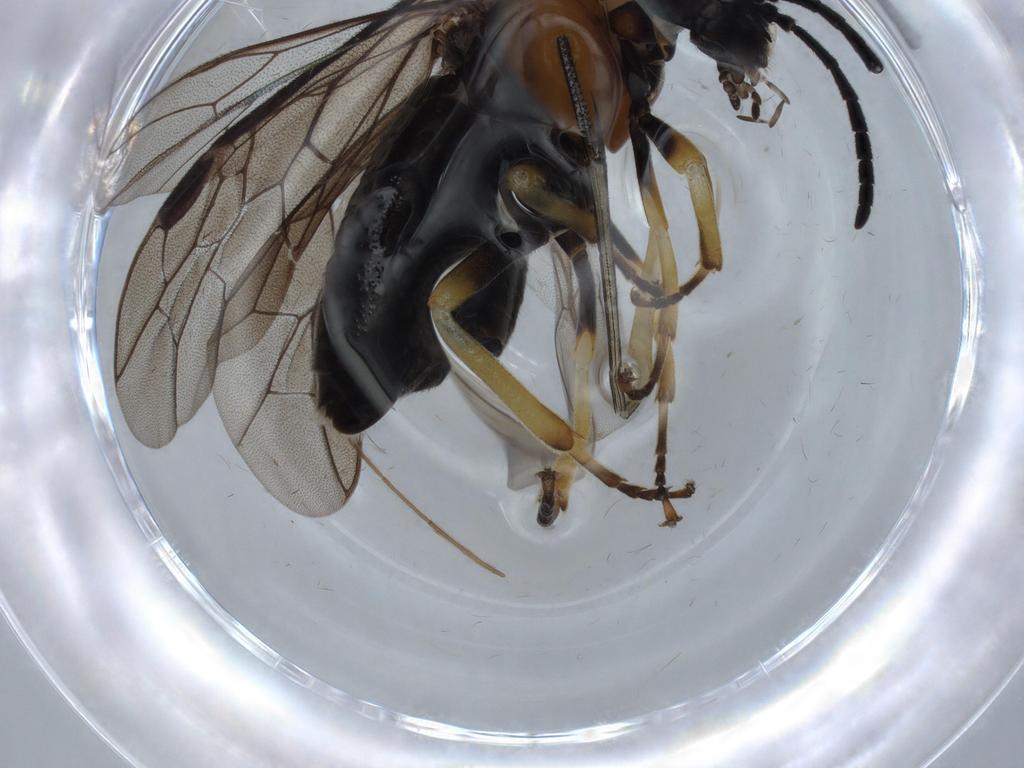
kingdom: Animalia
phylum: Arthropoda
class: Insecta
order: Hymenoptera
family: Tenthredinidae
